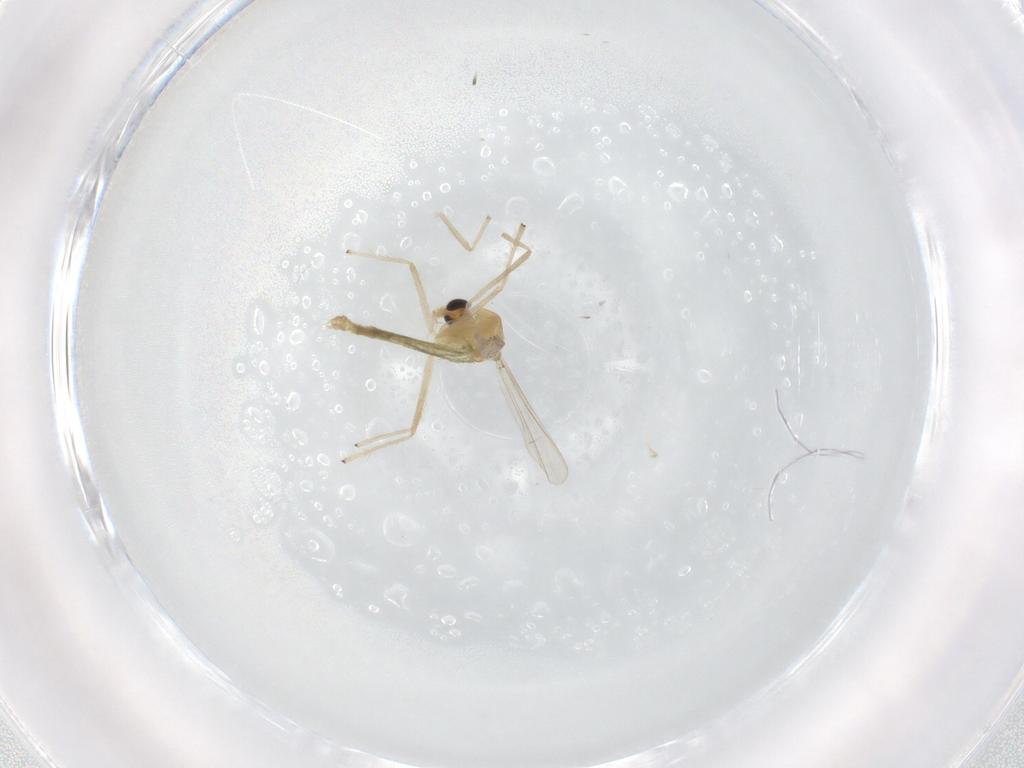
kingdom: Animalia
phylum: Arthropoda
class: Insecta
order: Diptera
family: Chironomidae
